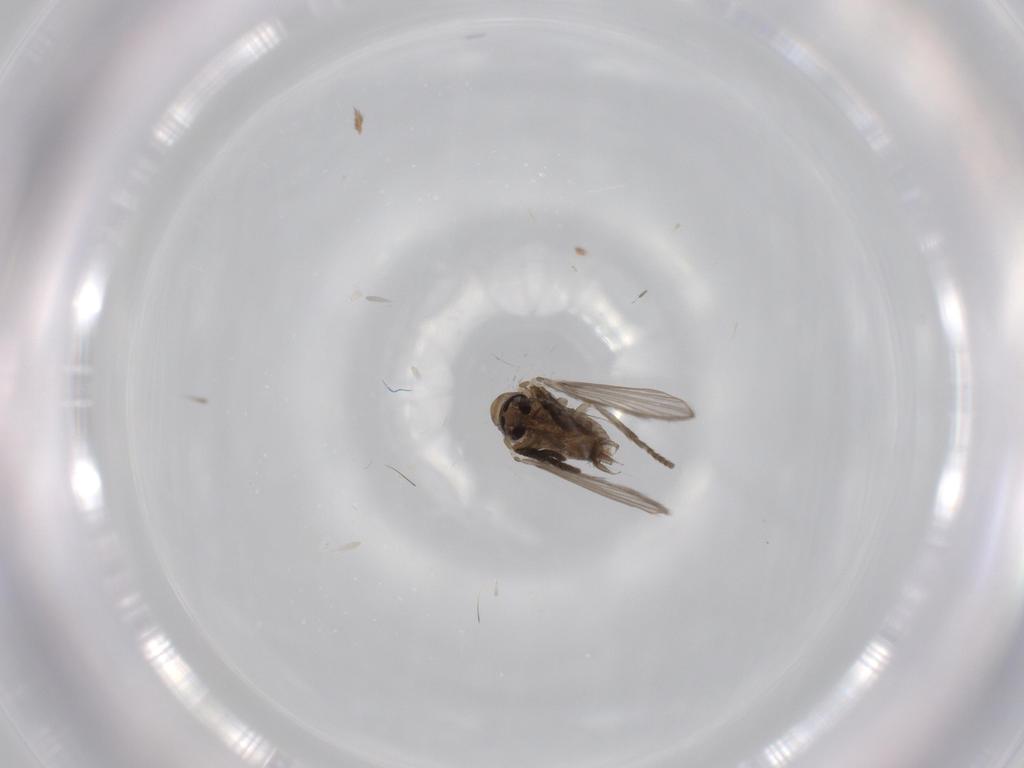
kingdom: Animalia
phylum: Arthropoda
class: Insecta
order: Diptera
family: Psychodidae
